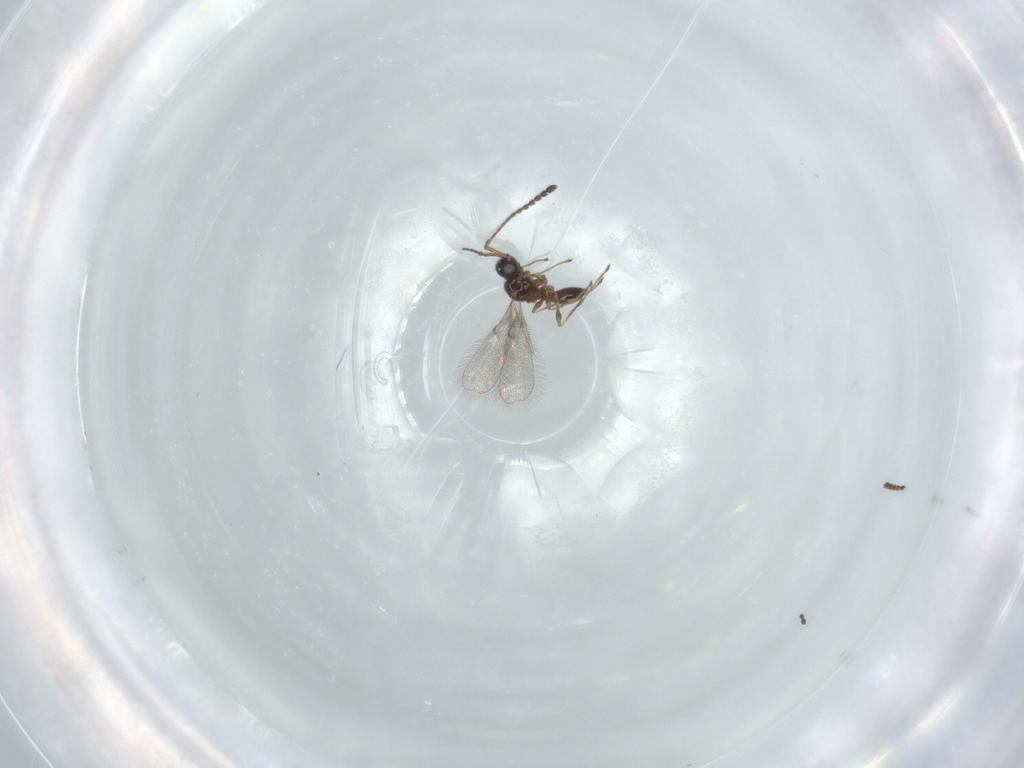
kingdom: Animalia
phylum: Arthropoda
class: Insecta
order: Hymenoptera
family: Diapriidae
